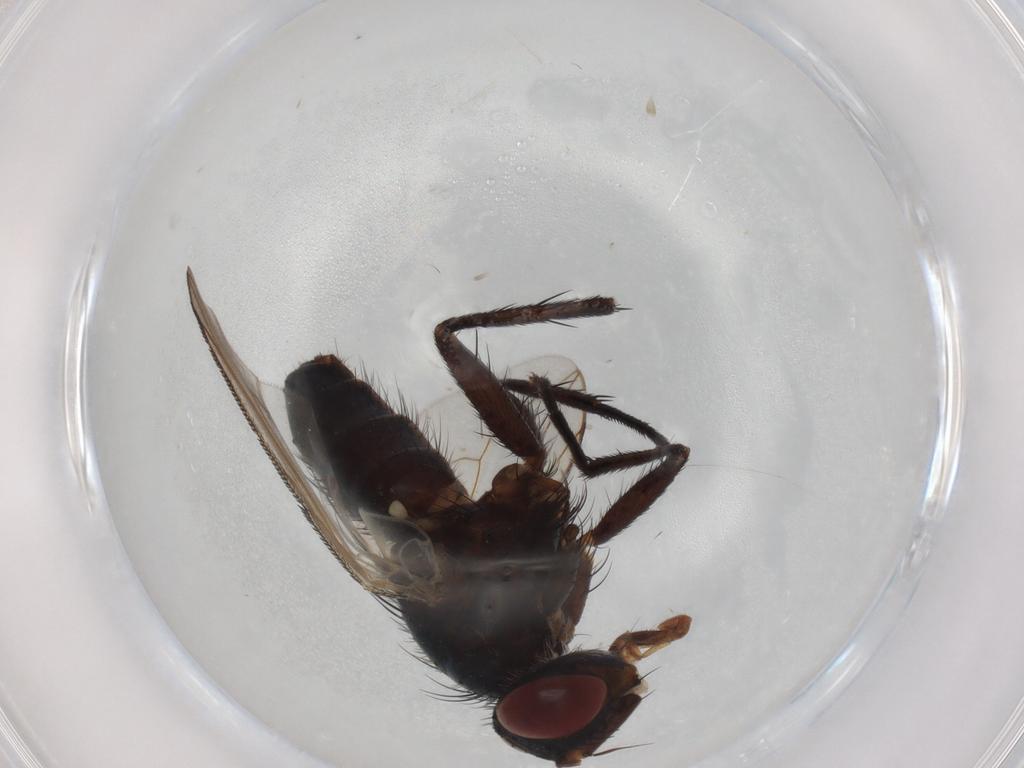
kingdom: Animalia
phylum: Arthropoda
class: Insecta
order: Diptera
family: Tachinidae
